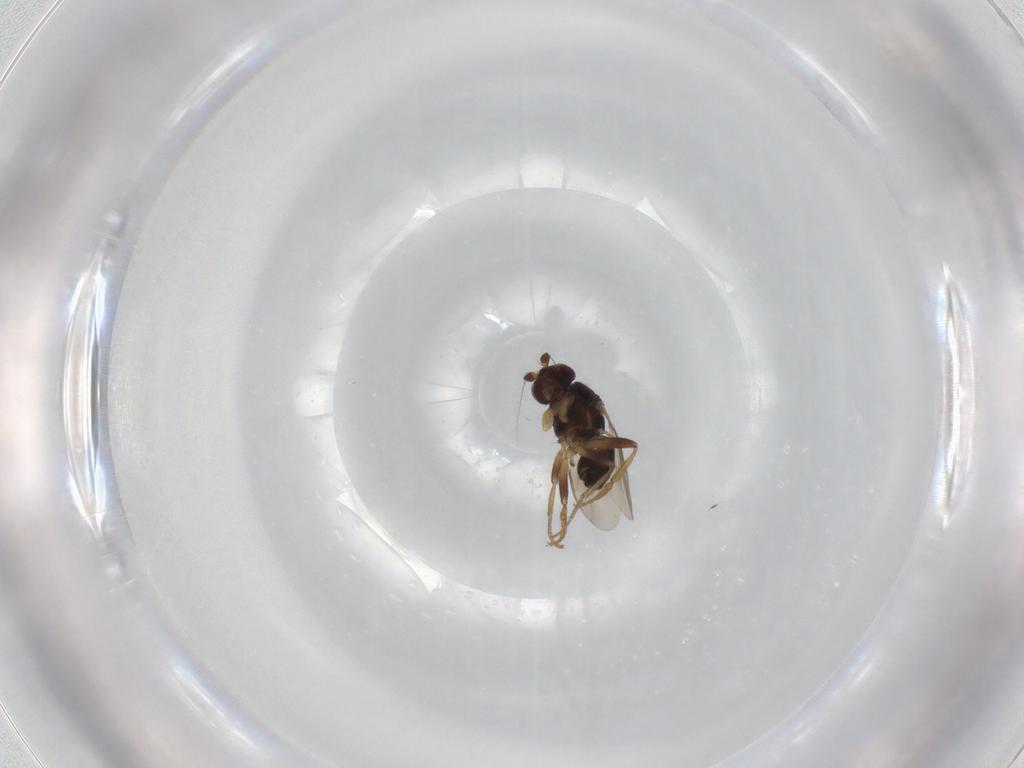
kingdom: Animalia
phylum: Arthropoda
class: Insecta
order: Diptera
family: Sphaeroceridae
